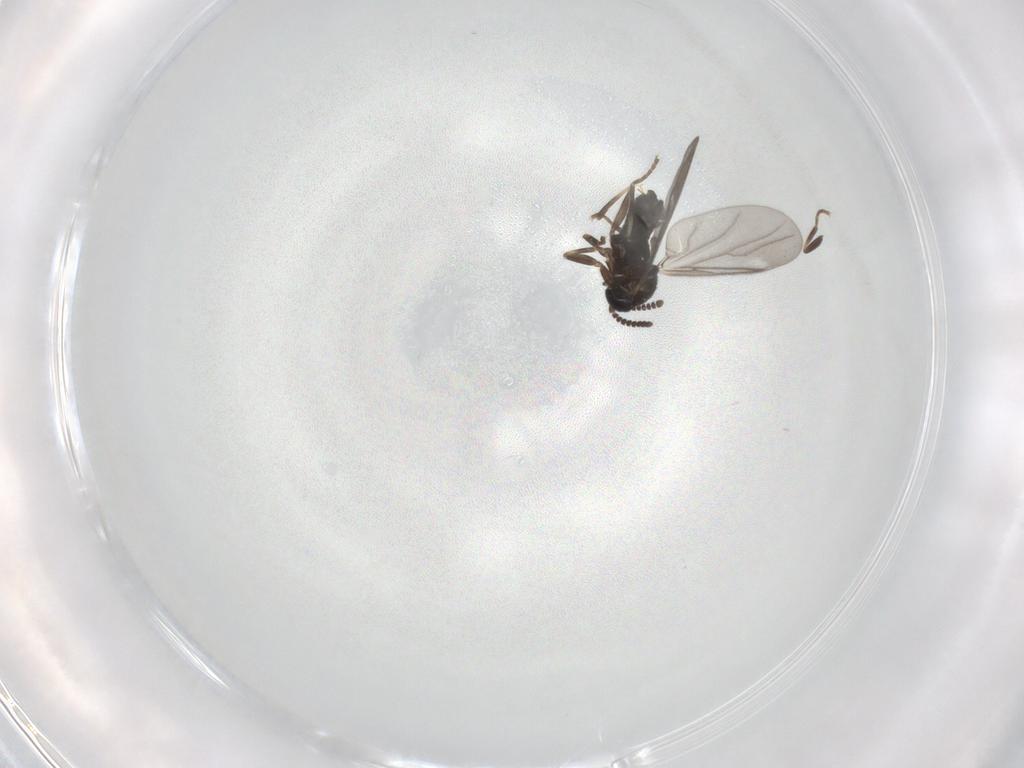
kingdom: Animalia
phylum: Arthropoda
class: Insecta
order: Diptera
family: Scatopsidae
